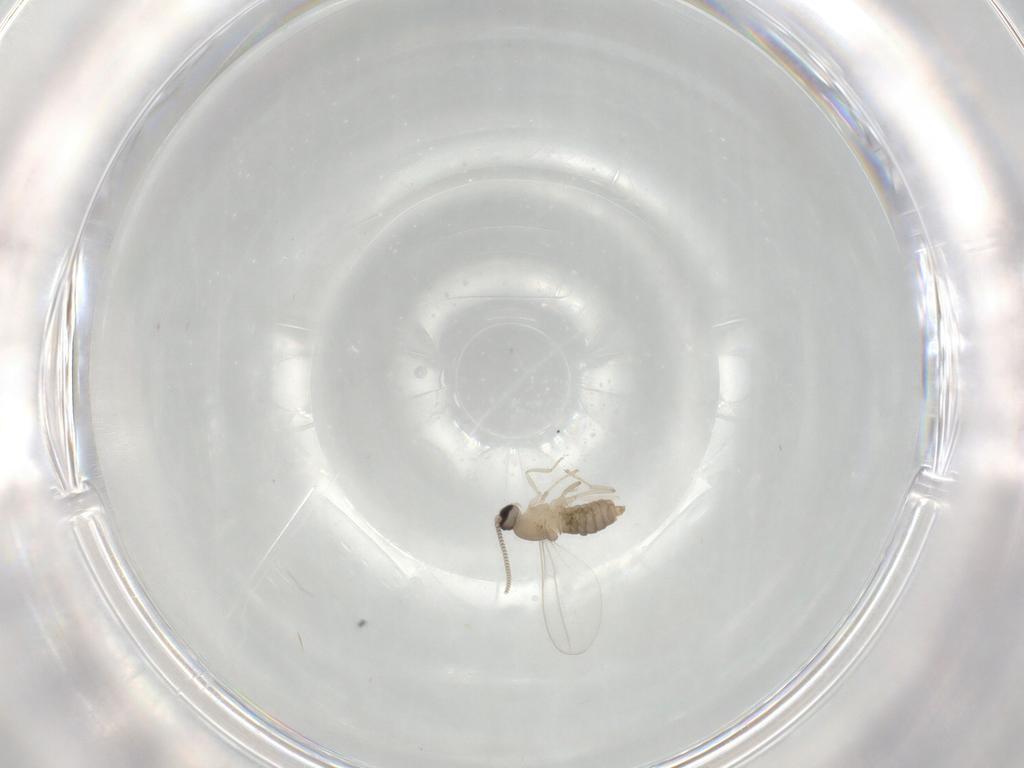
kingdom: Animalia
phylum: Arthropoda
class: Insecta
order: Diptera
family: Cecidomyiidae
